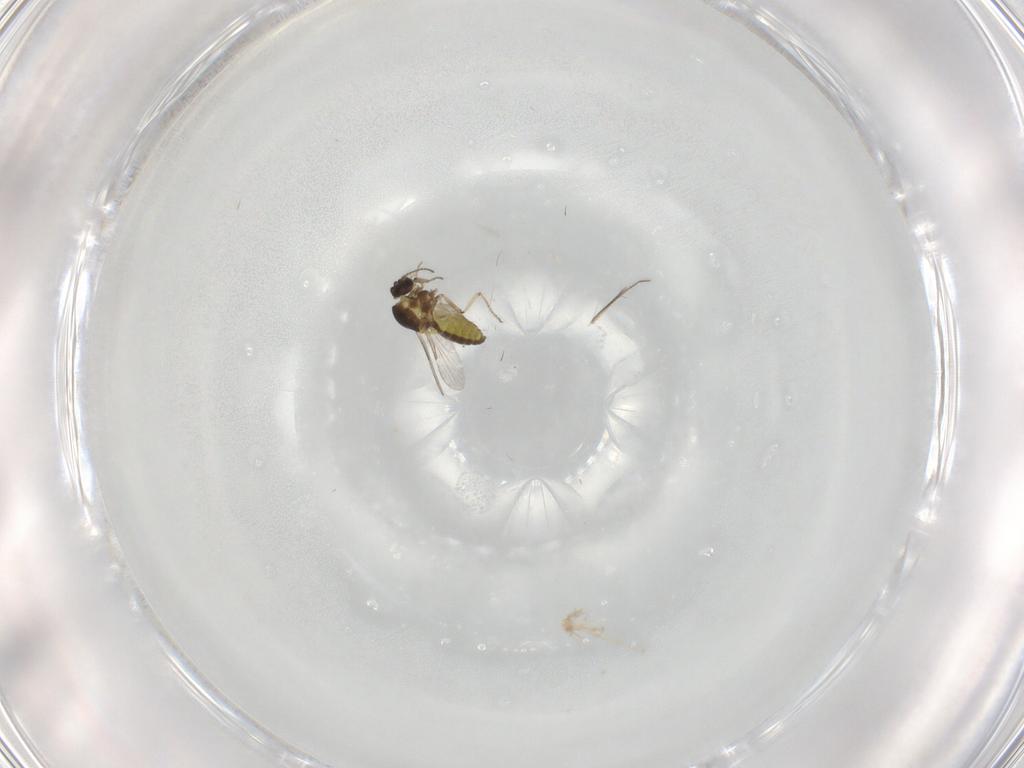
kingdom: Animalia
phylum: Arthropoda
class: Insecta
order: Diptera
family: Ceratopogonidae
